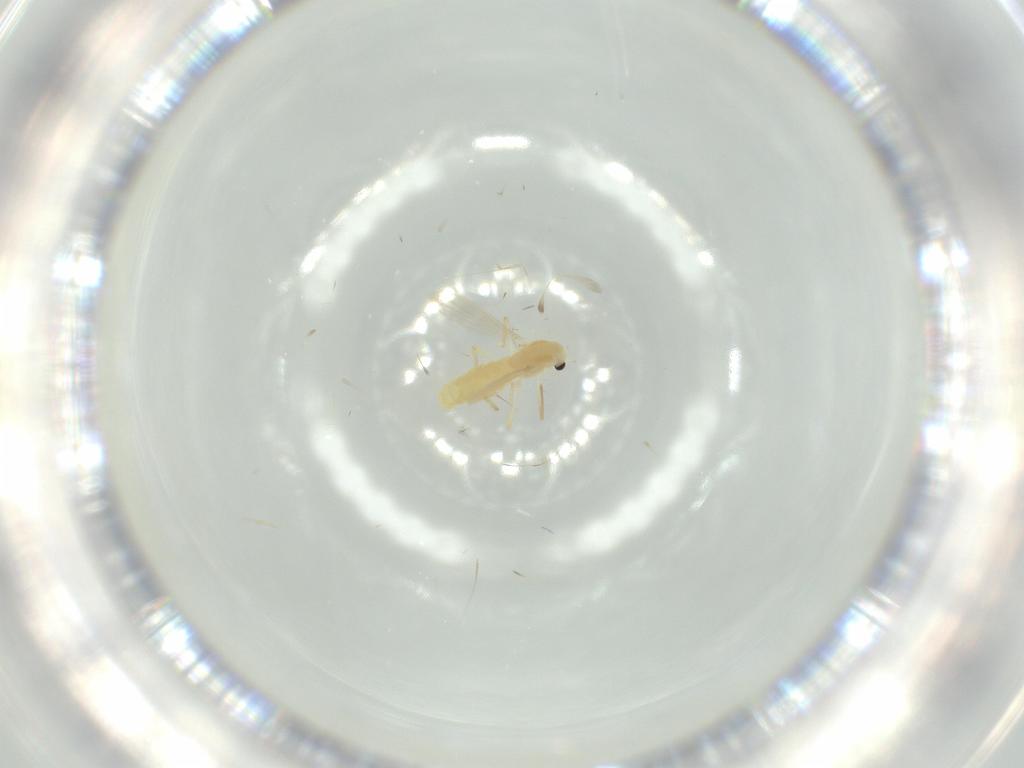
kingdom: Animalia
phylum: Arthropoda
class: Insecta
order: Diptera
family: Chironomidae
